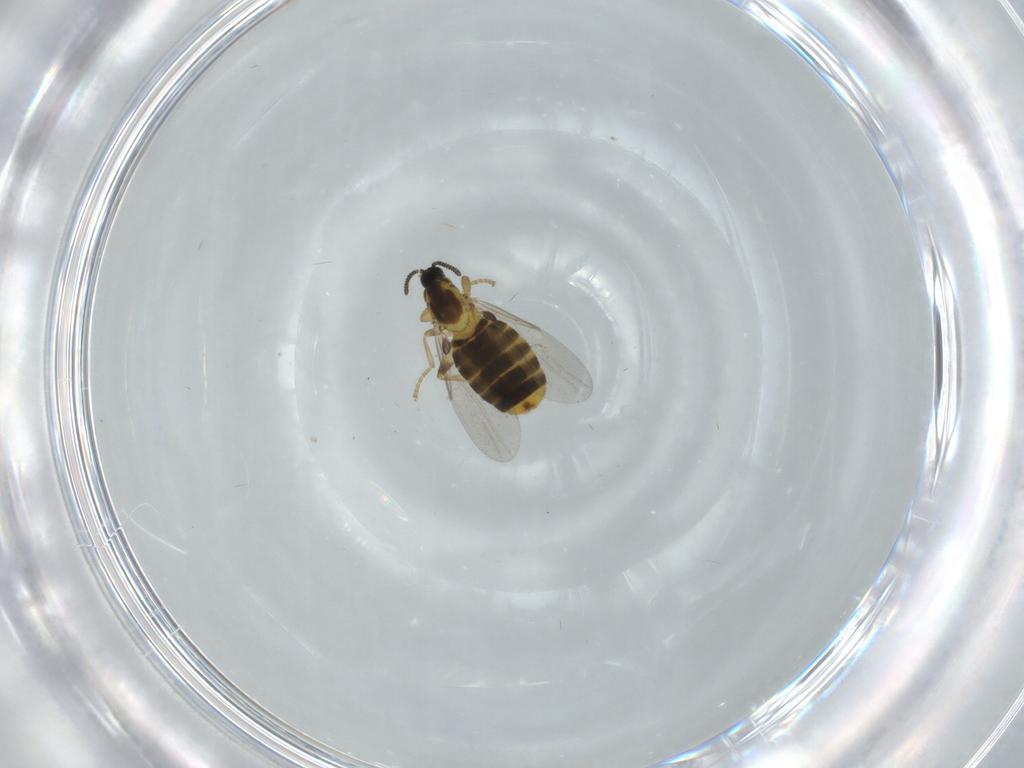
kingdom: Animalia
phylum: Arthropoda
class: Insecta
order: Diptera
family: Scatopsidae
